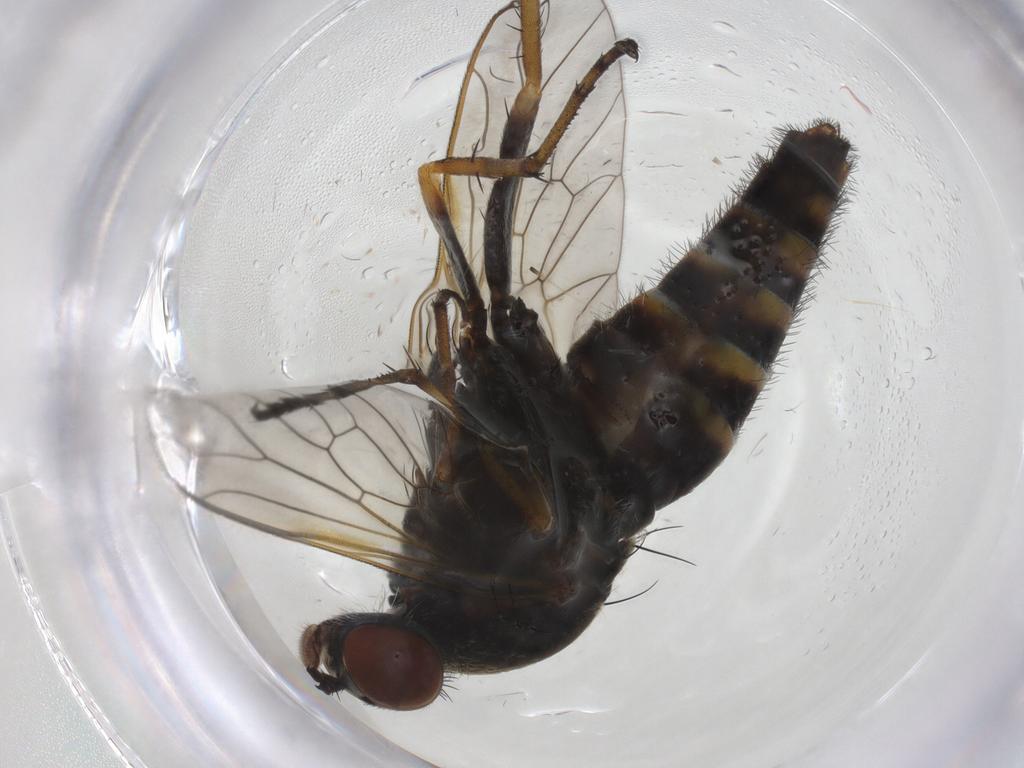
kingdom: Animalia
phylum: Arthropoda
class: Insecta
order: Diptera
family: Therevidae
